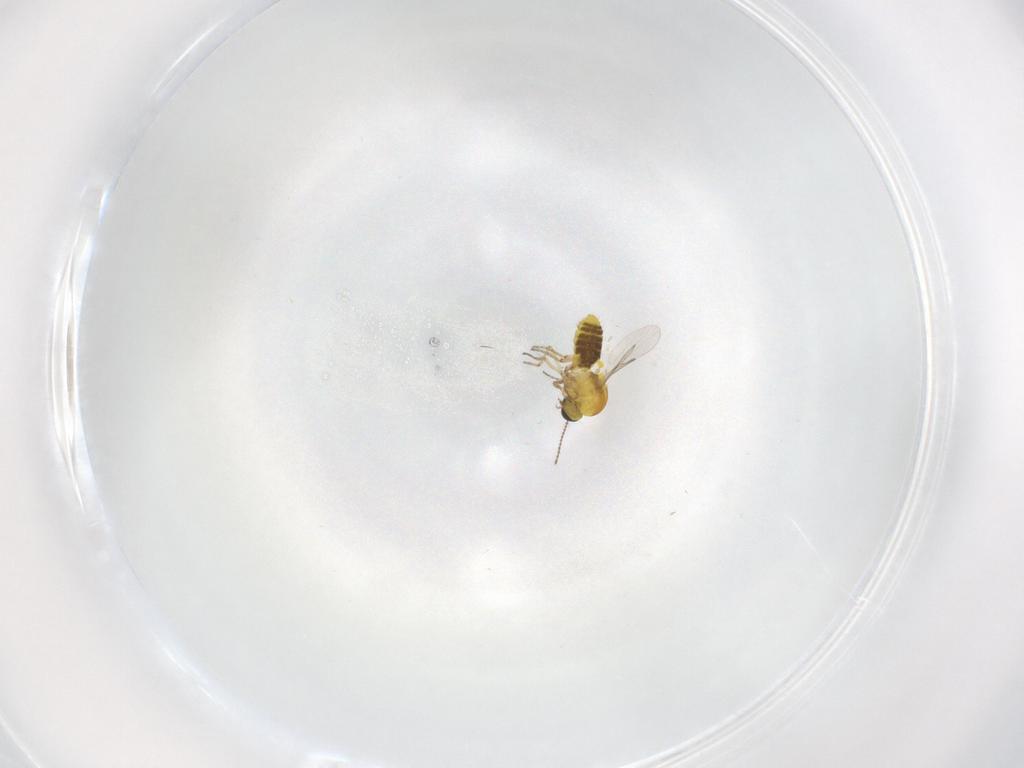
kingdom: Animalia
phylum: Arthropoda
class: Insecta
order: Diptera
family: Ceratopogonidae
